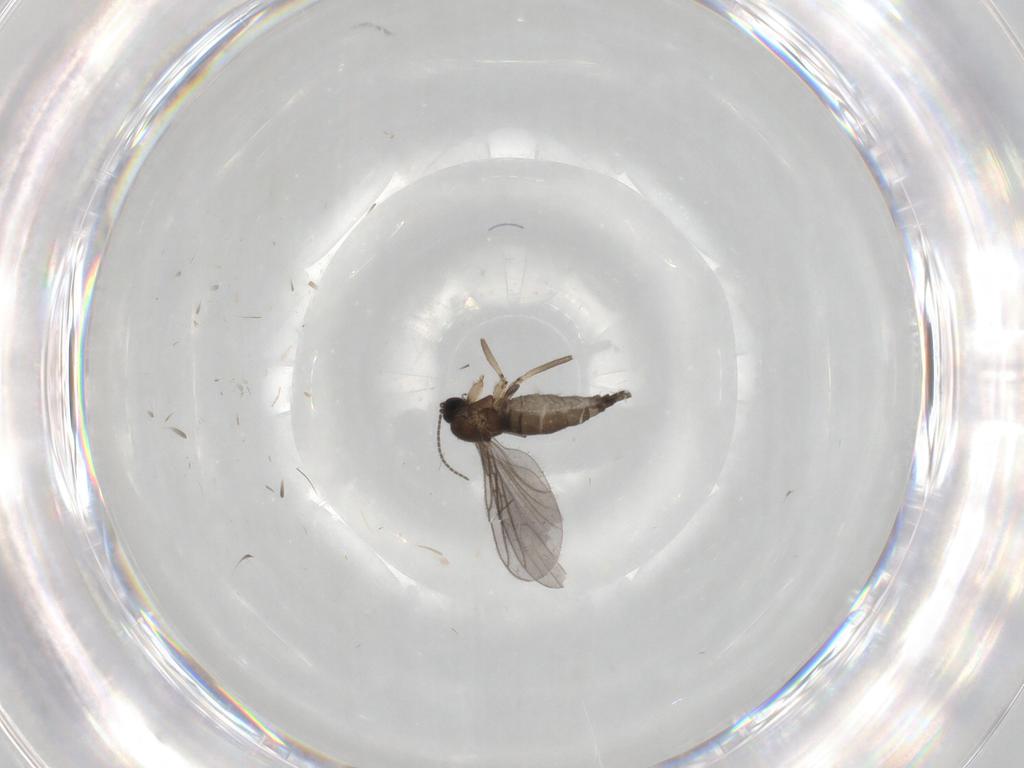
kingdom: Animalia
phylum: Arthropoda
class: Insecta
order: Diptera
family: Sciaridae
